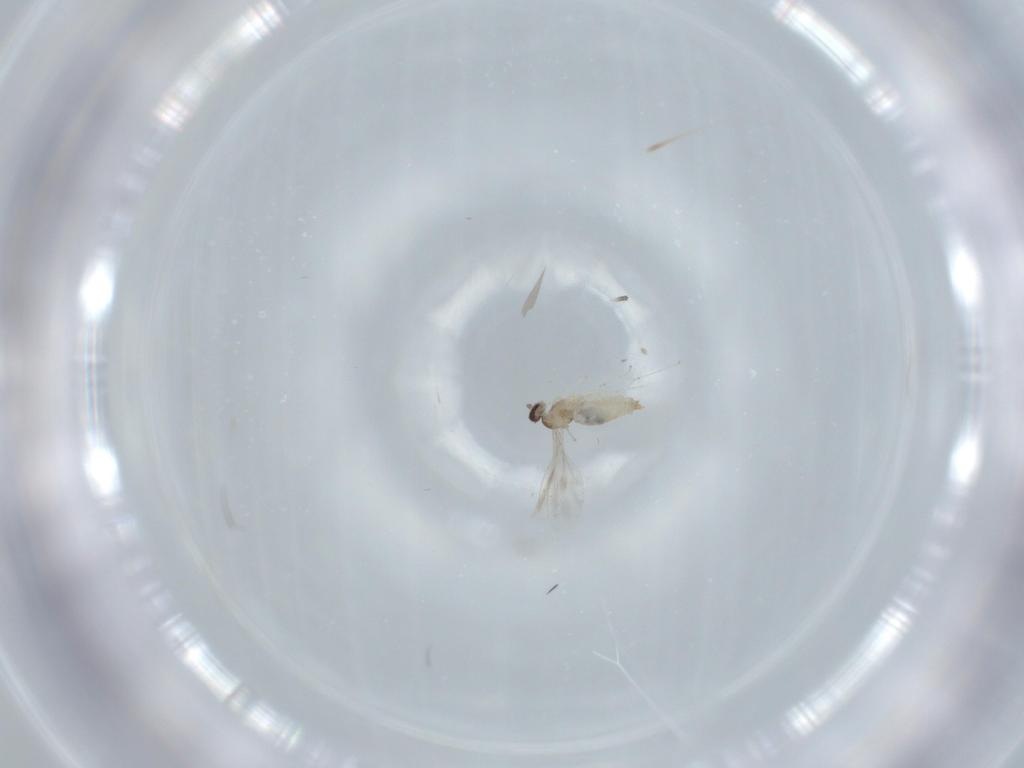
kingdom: Animalia
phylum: Arthropoda
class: Insecta
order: Diptera
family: Cecidomyiidae
